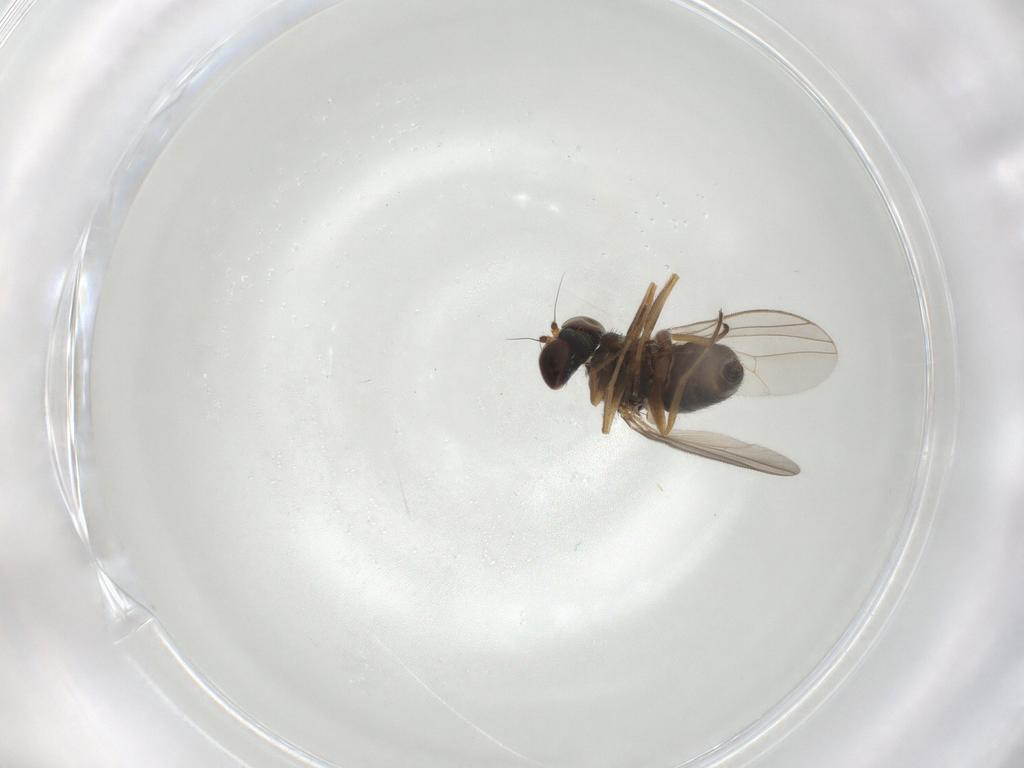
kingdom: Animalia
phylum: Arthropoda
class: Insecta
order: Diptera
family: Dolichopodidae
